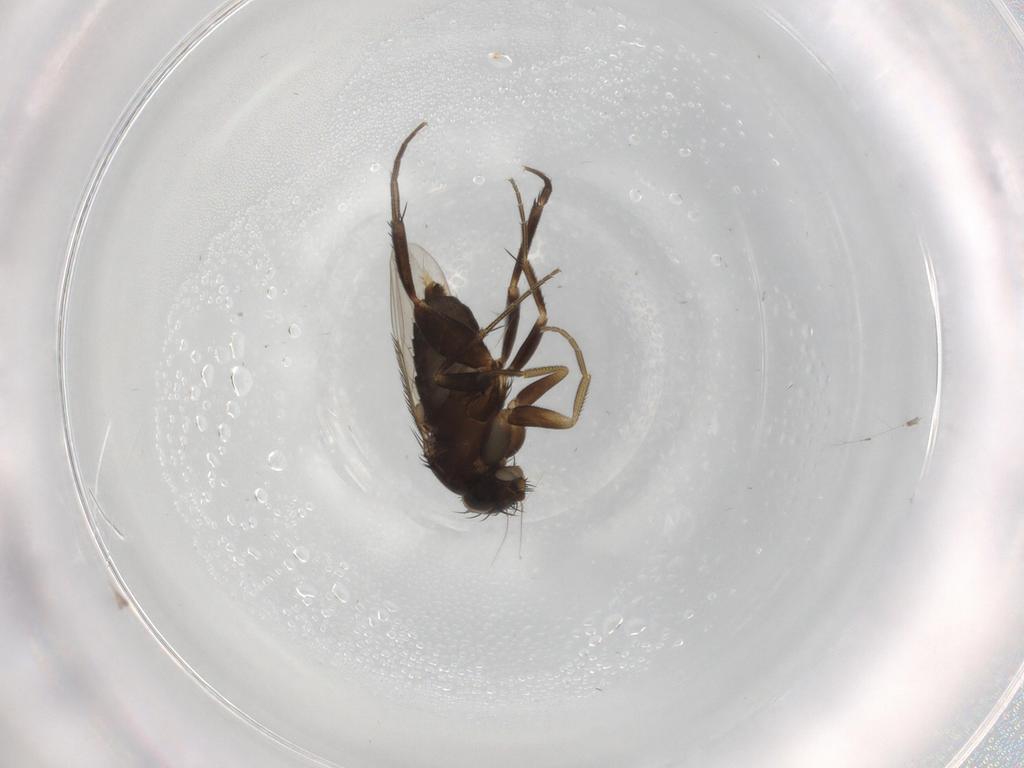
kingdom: Animalia
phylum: Arthropoda
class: Insecta
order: Diptera
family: Phoridae
